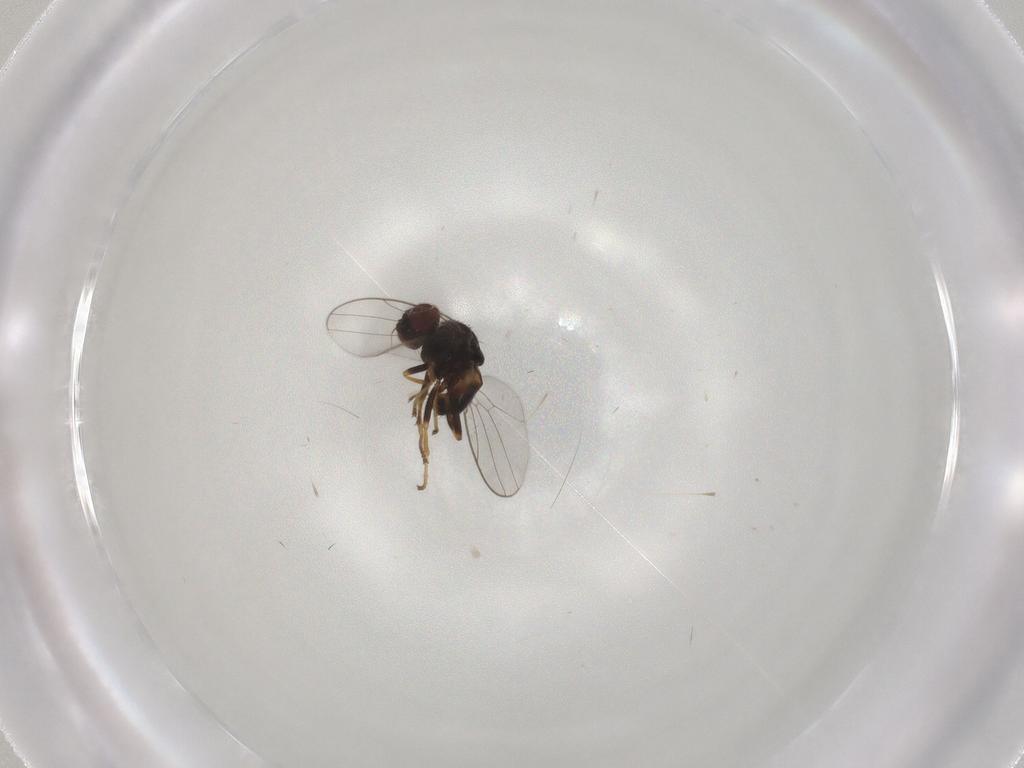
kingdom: Animalia
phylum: Arthropoda
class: Insecta
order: Diptera
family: Chloropidae
